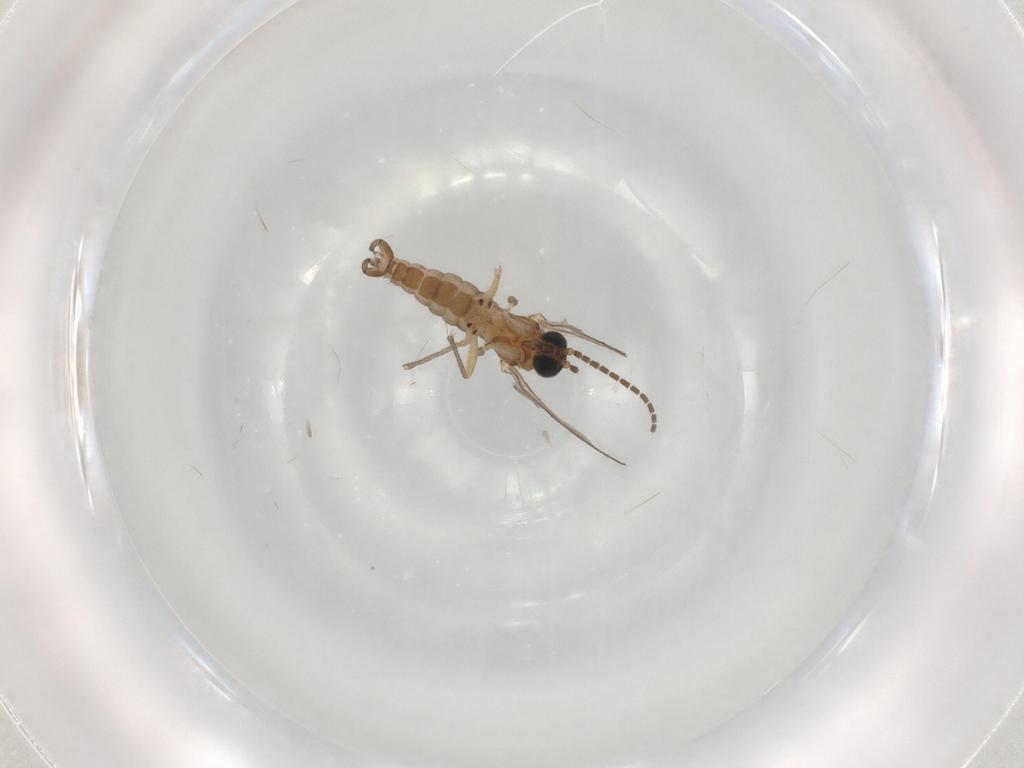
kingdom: Animalia
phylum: Arthropoda
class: Insecta
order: Diptera
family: Sciaridae
